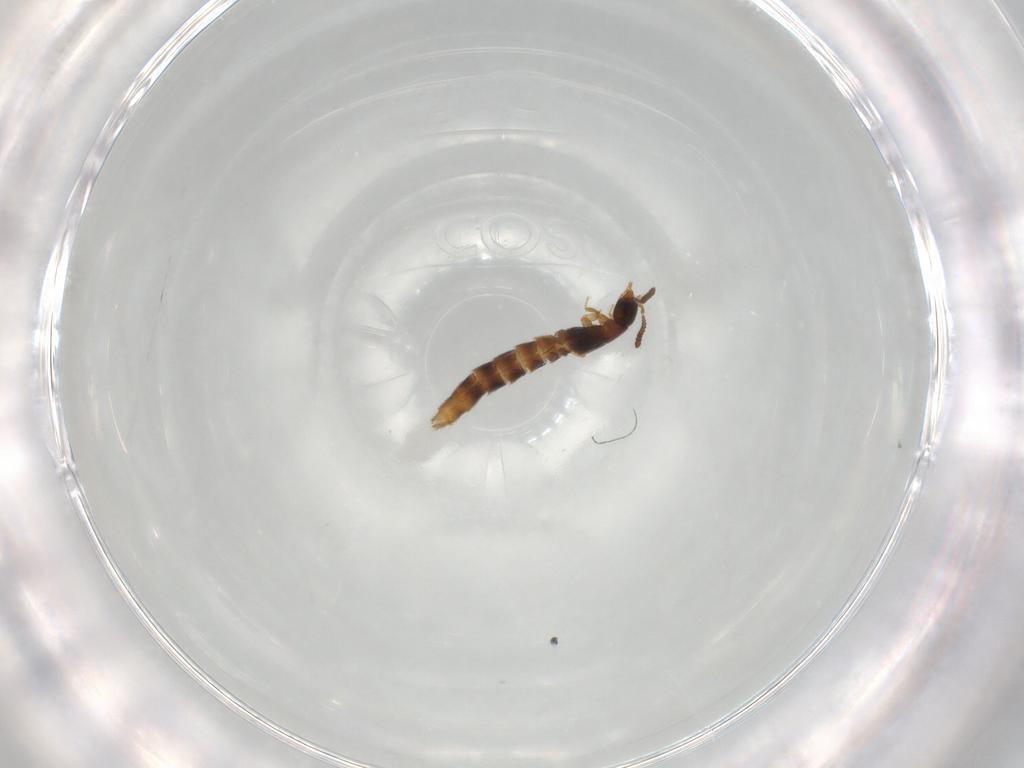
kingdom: Animalia
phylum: Arthropoda
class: Insecta
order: Coleoptera
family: Staphylinidae
